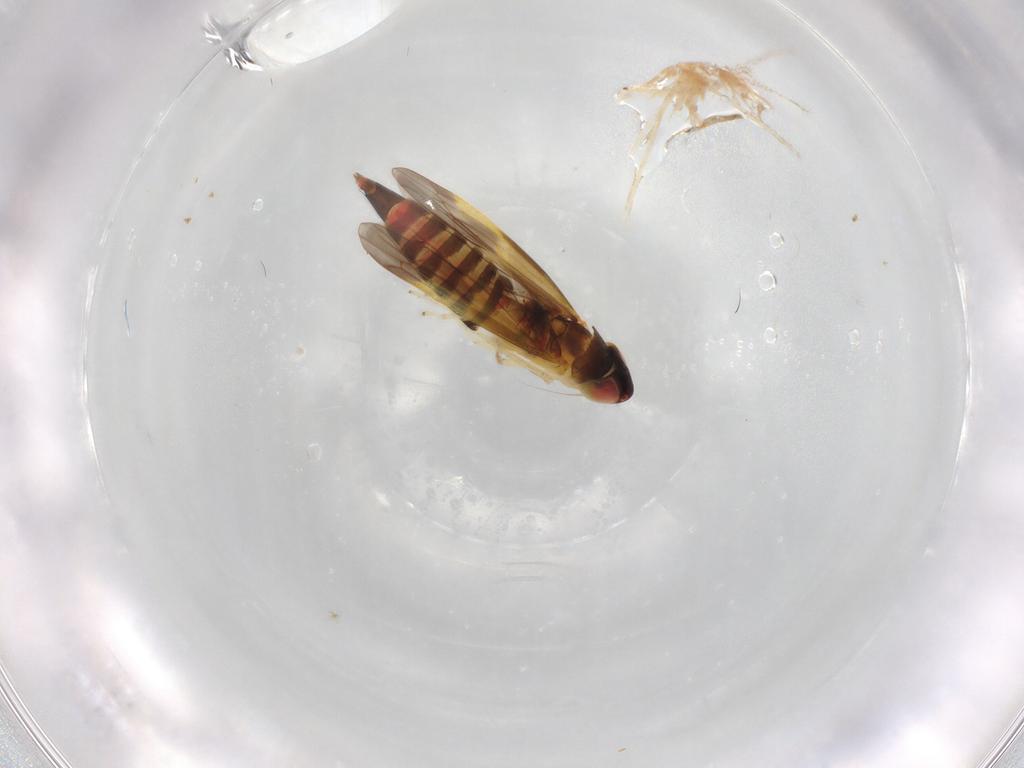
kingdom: Animalia
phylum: Arthropoda
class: Insecta
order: Hemiptera
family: Cicadellidae
